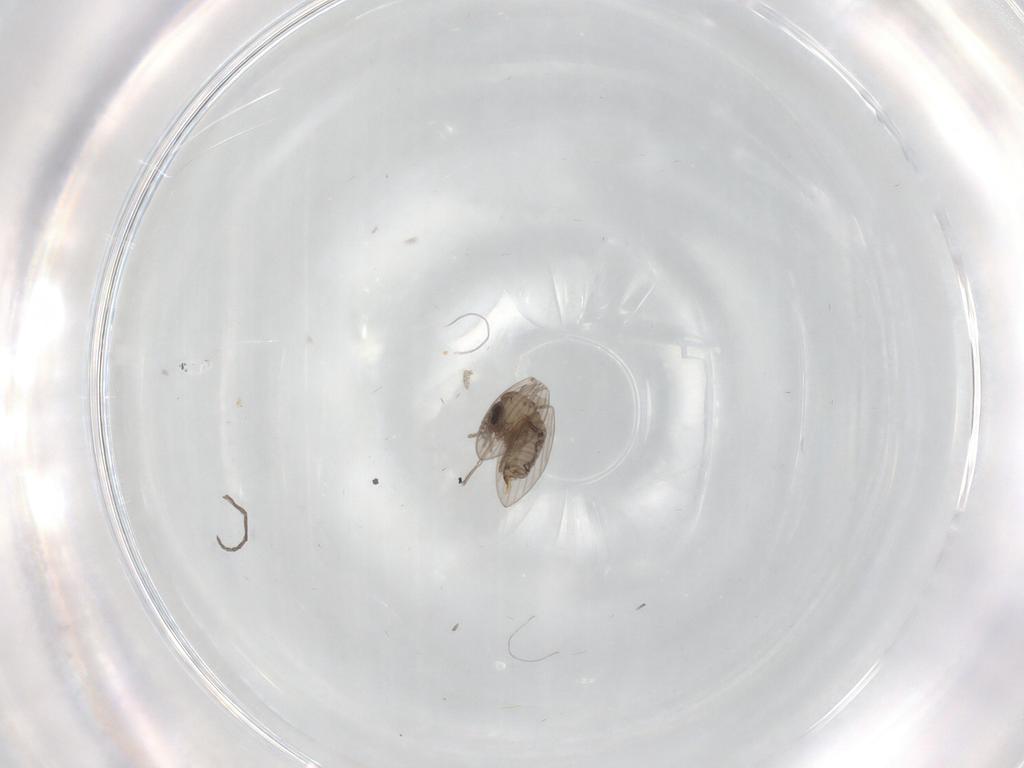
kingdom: Animalia
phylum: Arthropoda
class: Insecta
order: Diptera
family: Psychodidae
